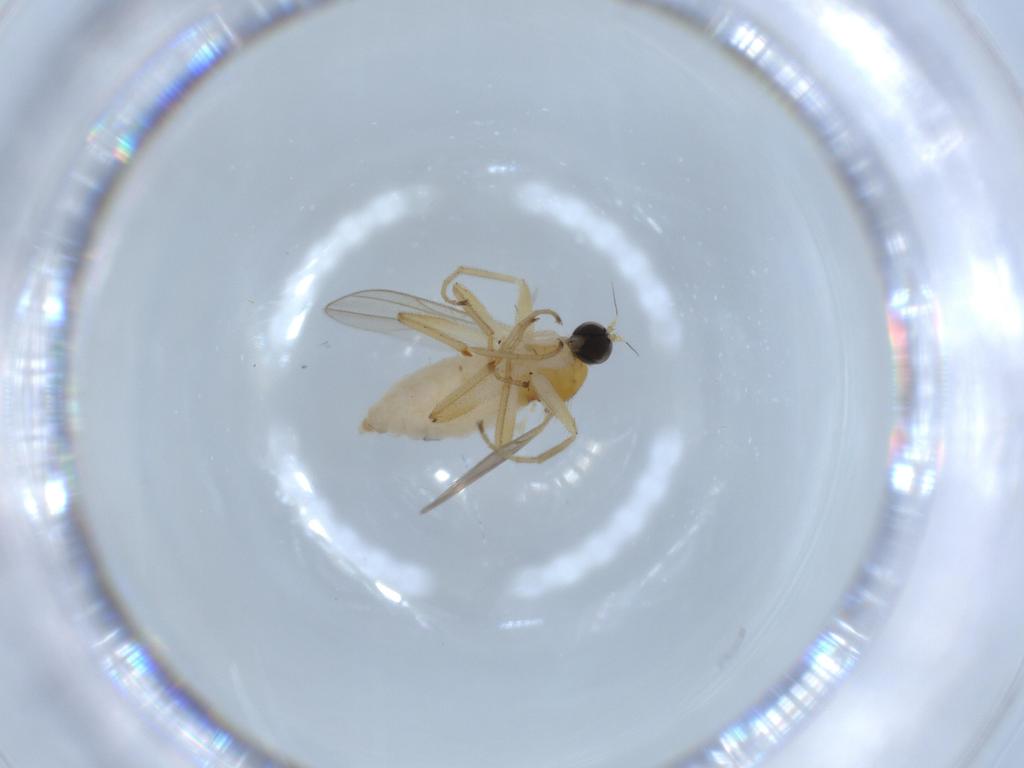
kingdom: Animalia
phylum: Arthropoda
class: Insecta
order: Diptera
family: Hybotidae
